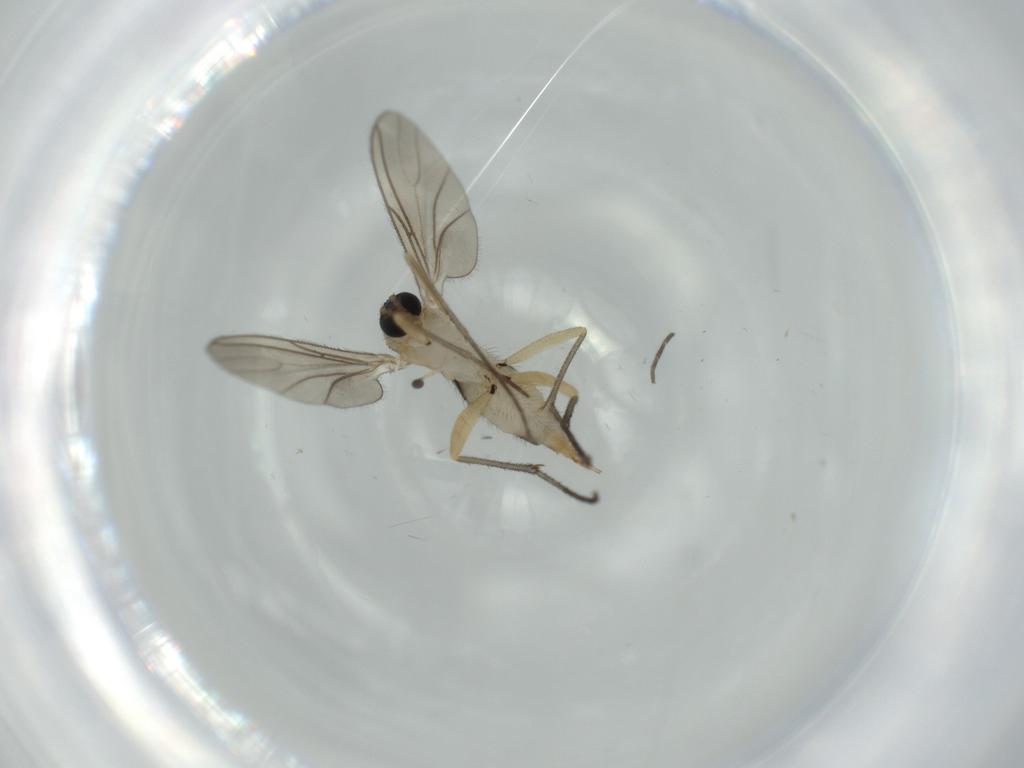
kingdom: Animalia
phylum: Arthropoda
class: Insecta
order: Diptera
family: Sciaridae
